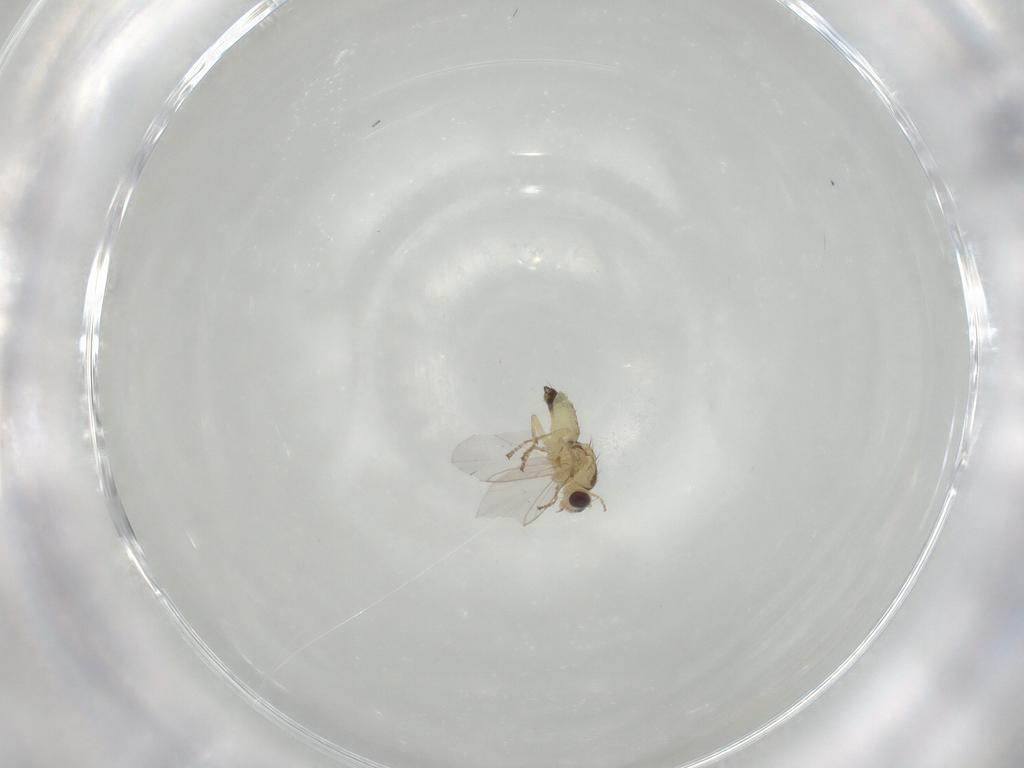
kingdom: Animalia
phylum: Arthropoda
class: Insecta
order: Diptera
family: Agromyzidae
